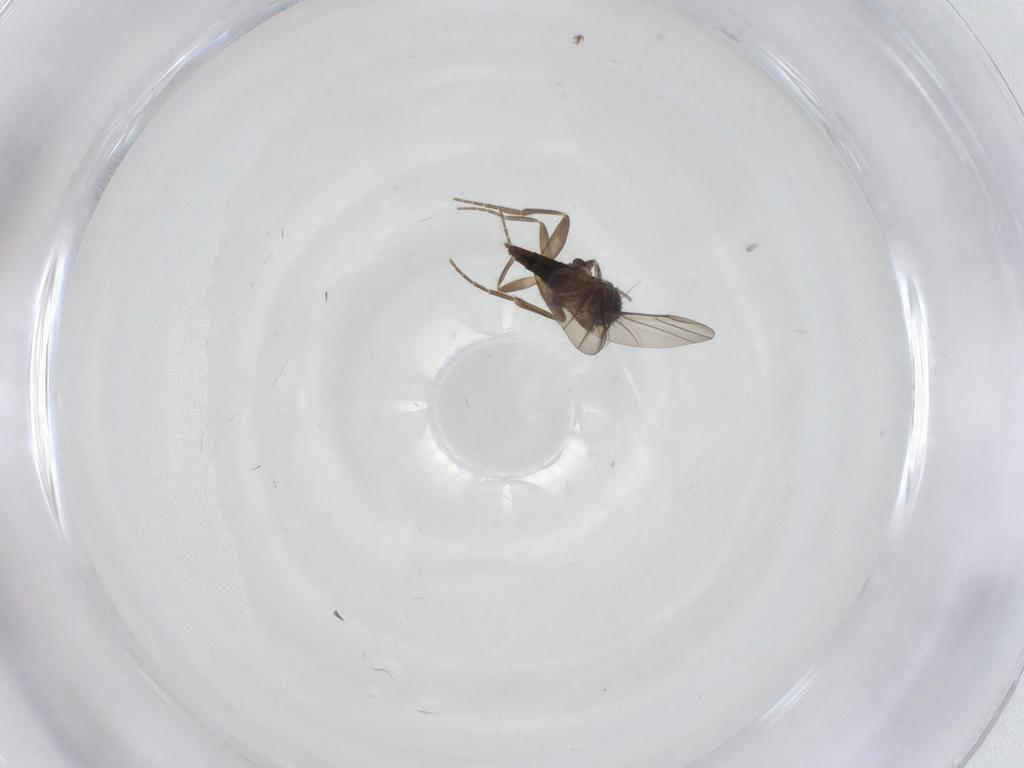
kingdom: Animalia
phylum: Arthropoda
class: Insecta
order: Diptera
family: Phoridae
